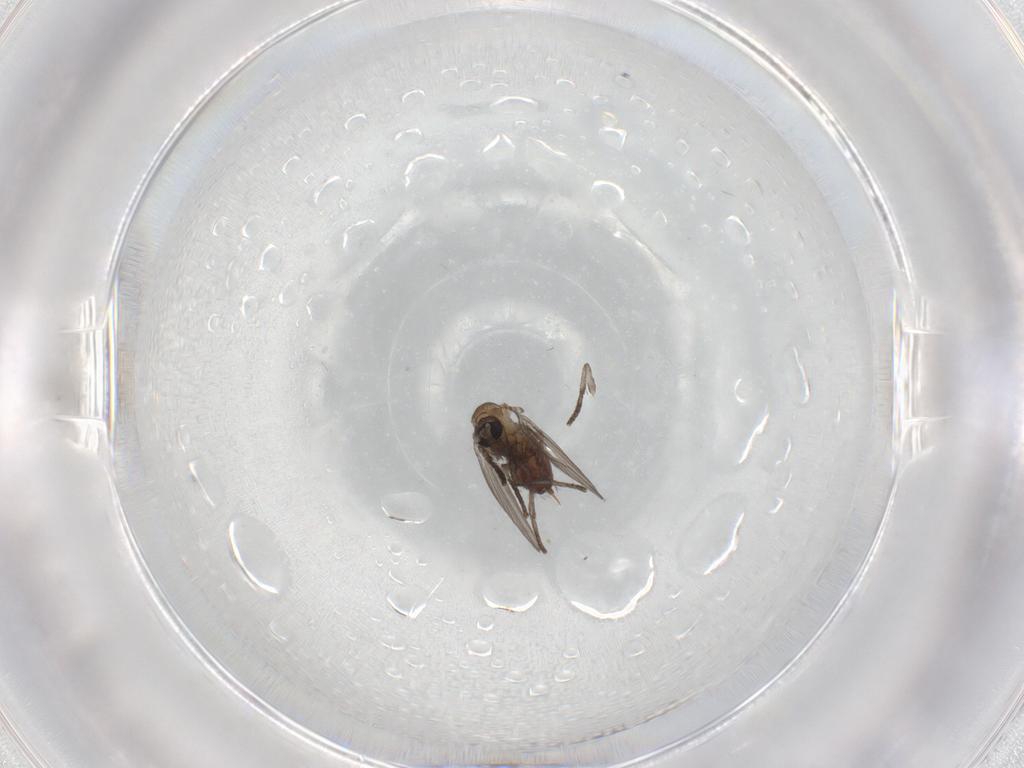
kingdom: Animalia
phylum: Arthropoda
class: Insecta
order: Diptera
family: Psychodidae
